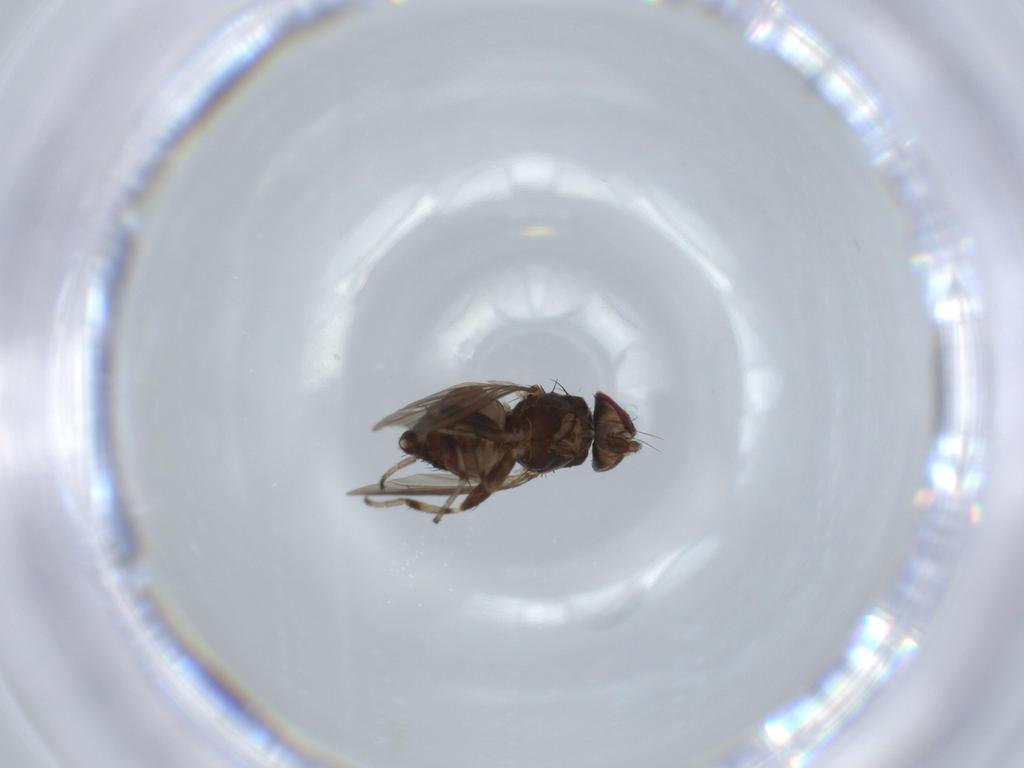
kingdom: Animalia
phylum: Arthropoda
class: Insecta
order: Diptera
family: Heleomyzidae
